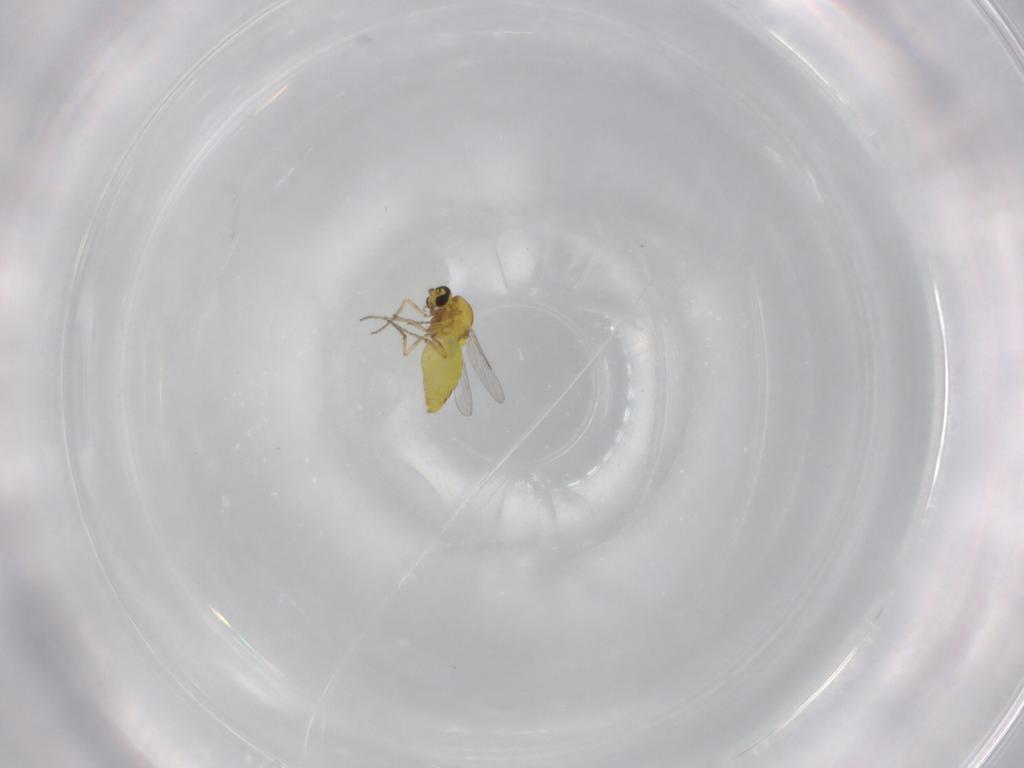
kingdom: Animalia
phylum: Arthropoda
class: Insecta
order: Diptera
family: Ceratopogonidae
